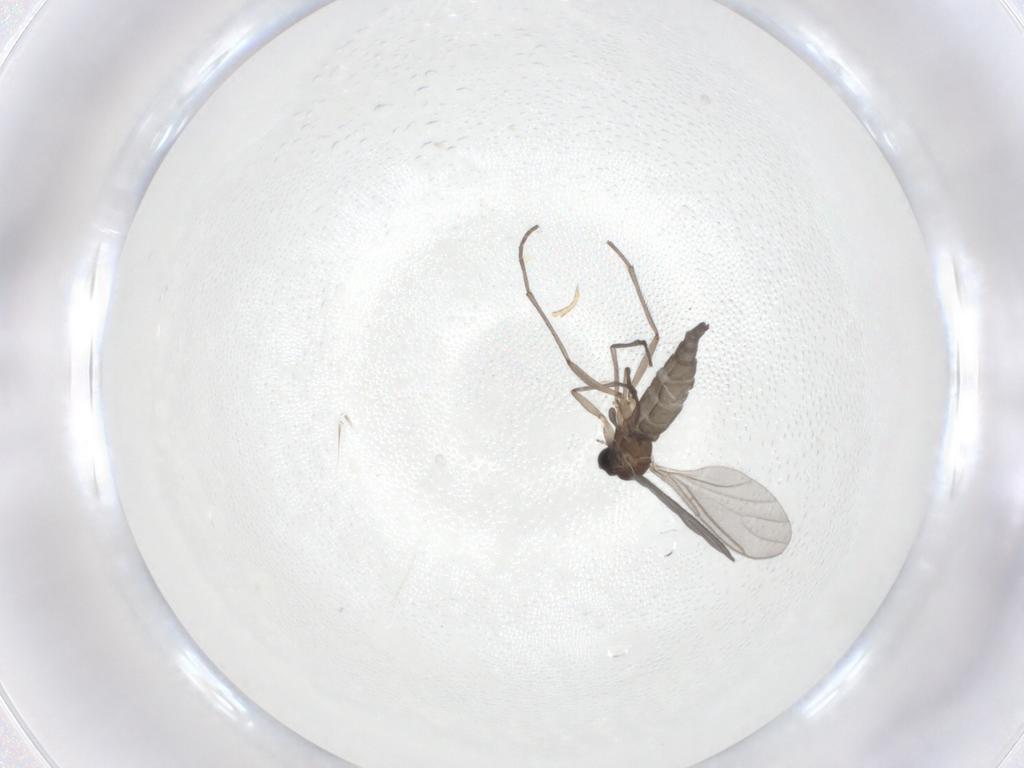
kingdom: Animalia
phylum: Arthropoda
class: Insecta
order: Diptera
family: Sciaridae
